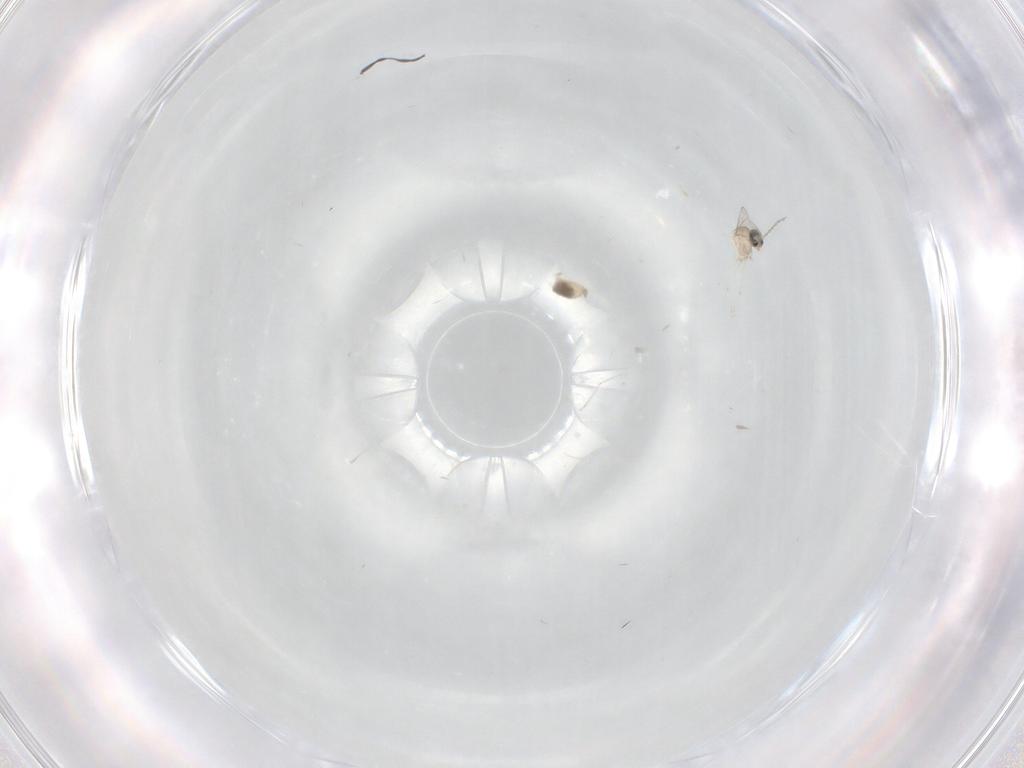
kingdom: Animalia
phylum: Arthropoda
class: Insecta
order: Diptera
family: Cecidomyiidae
